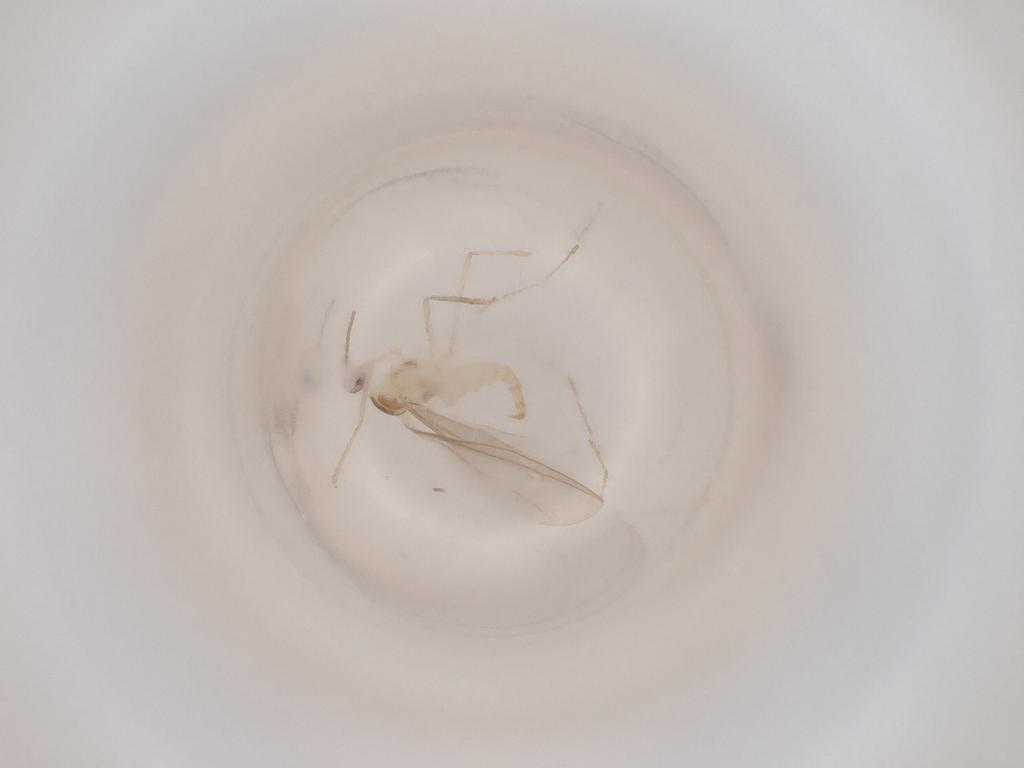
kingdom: Animalia
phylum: Arthropoda
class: Insecta
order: Diptera
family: Cecidomyiidae
